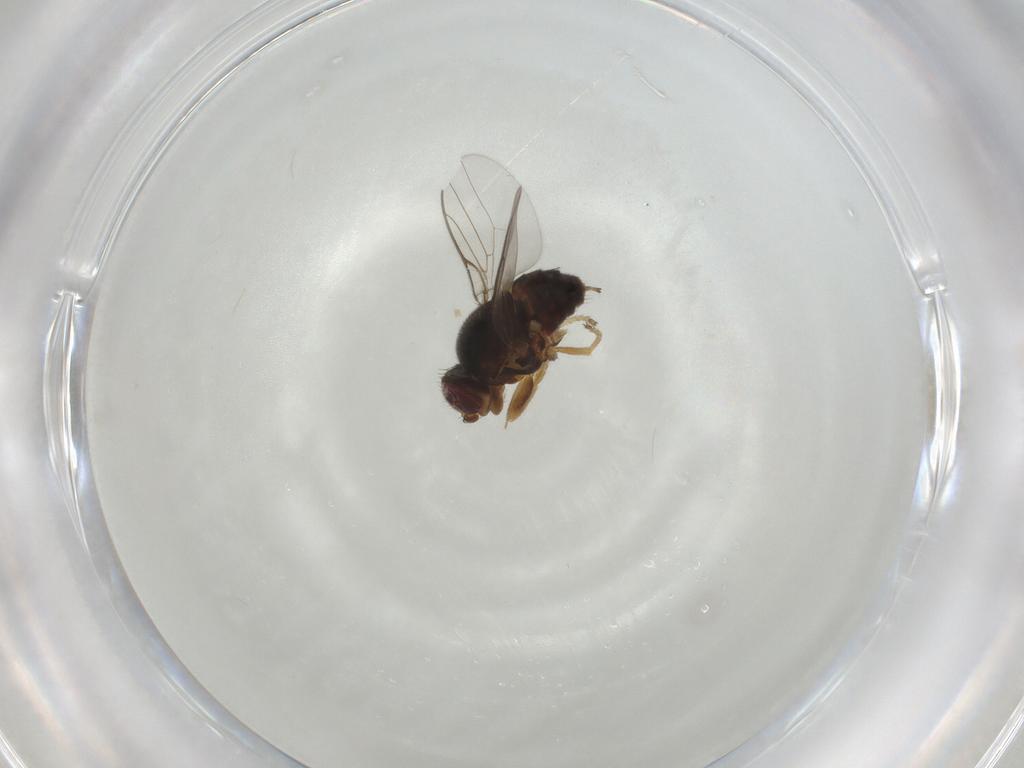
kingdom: Animalia
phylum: Arthropoda
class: Insecta
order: Diptera
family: Chloropidae
